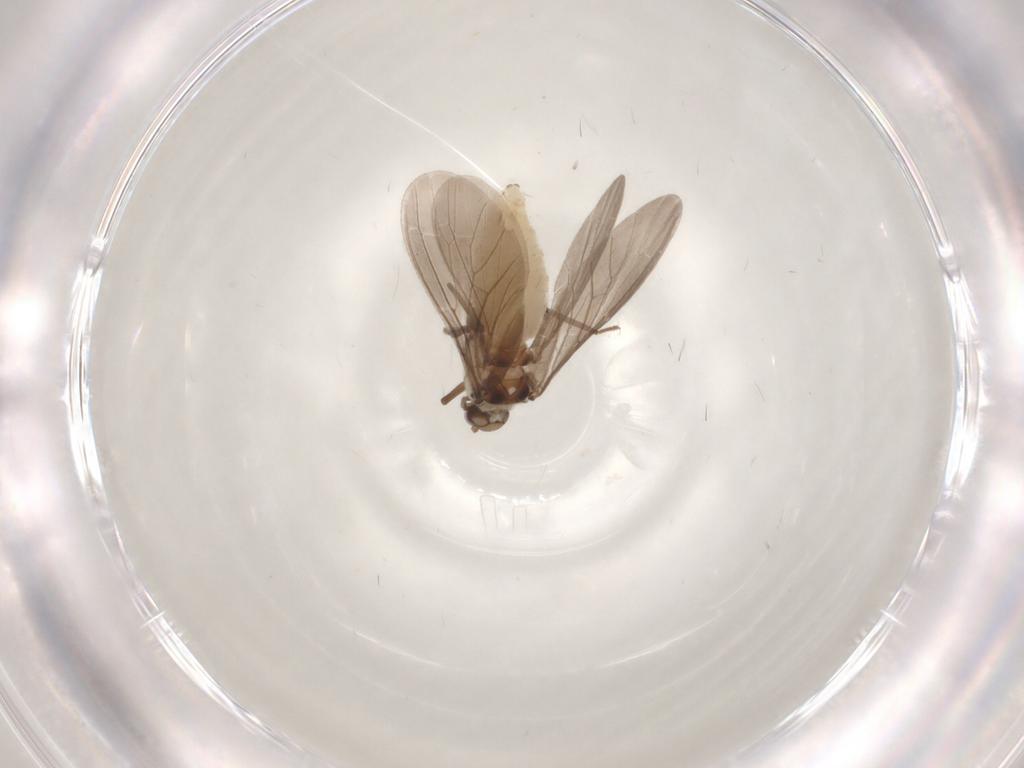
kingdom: Animalia
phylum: Arthropoda
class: Insecta
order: Neuroptera
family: Coniopterygidae
